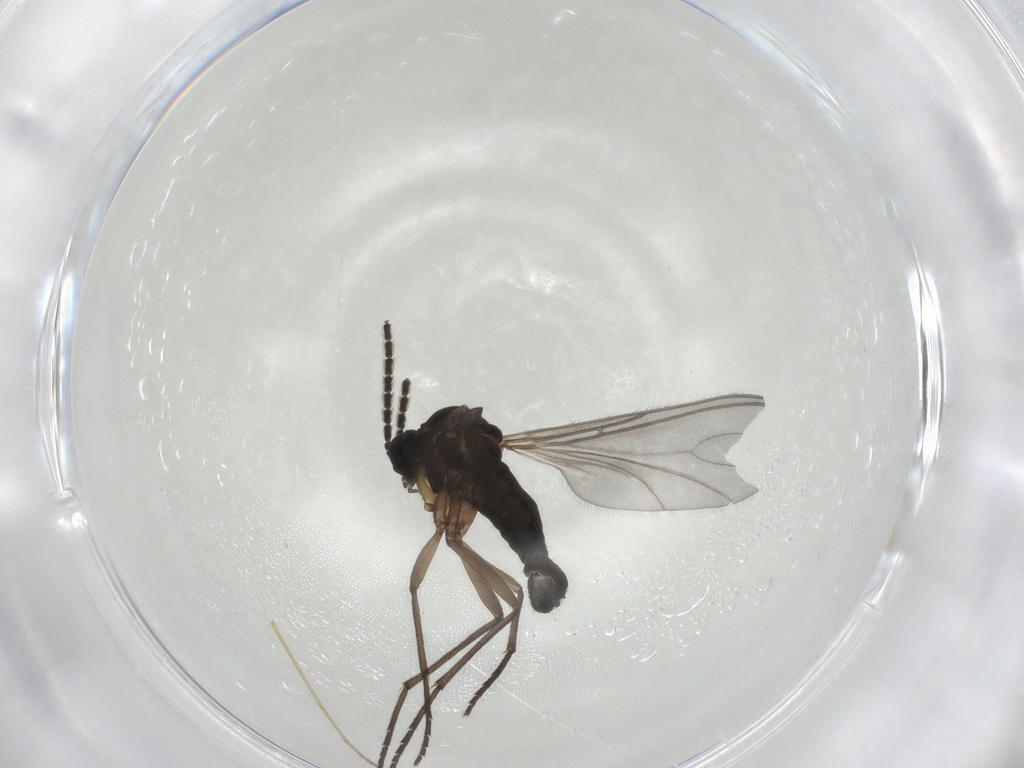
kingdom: Animalia
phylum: Arthropoda
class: Insecta
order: Diptera
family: Sciaridae
